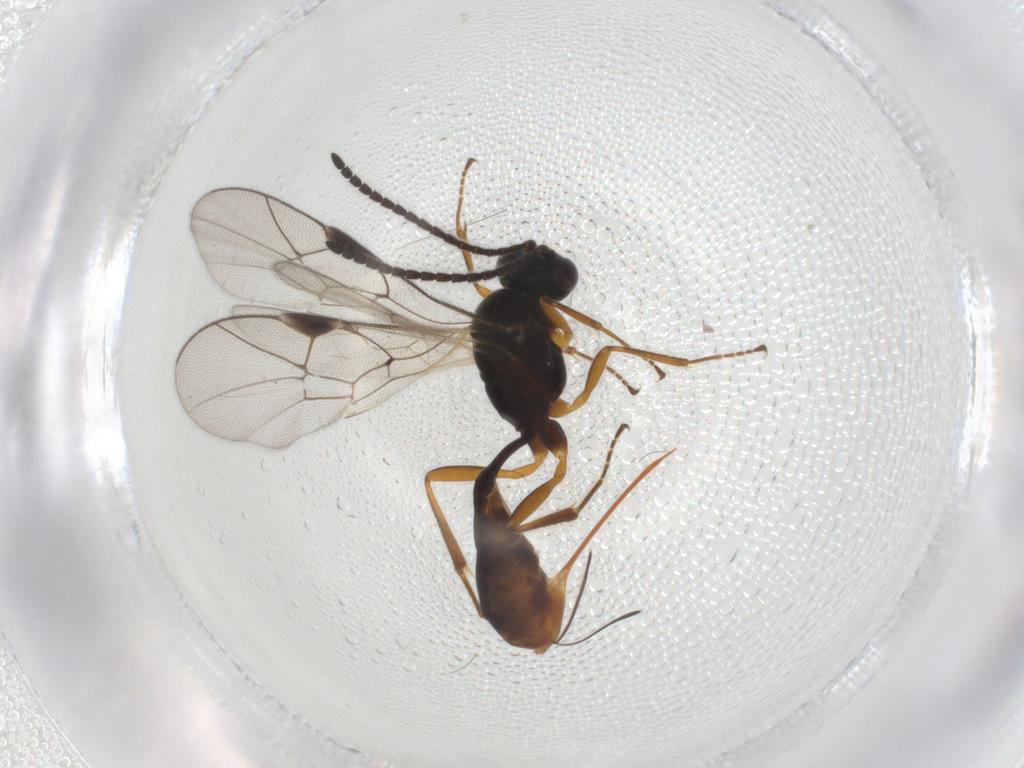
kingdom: Animalia
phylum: Arthropoda
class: Insecta
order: Hymenoptera
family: Ichneumonidae
